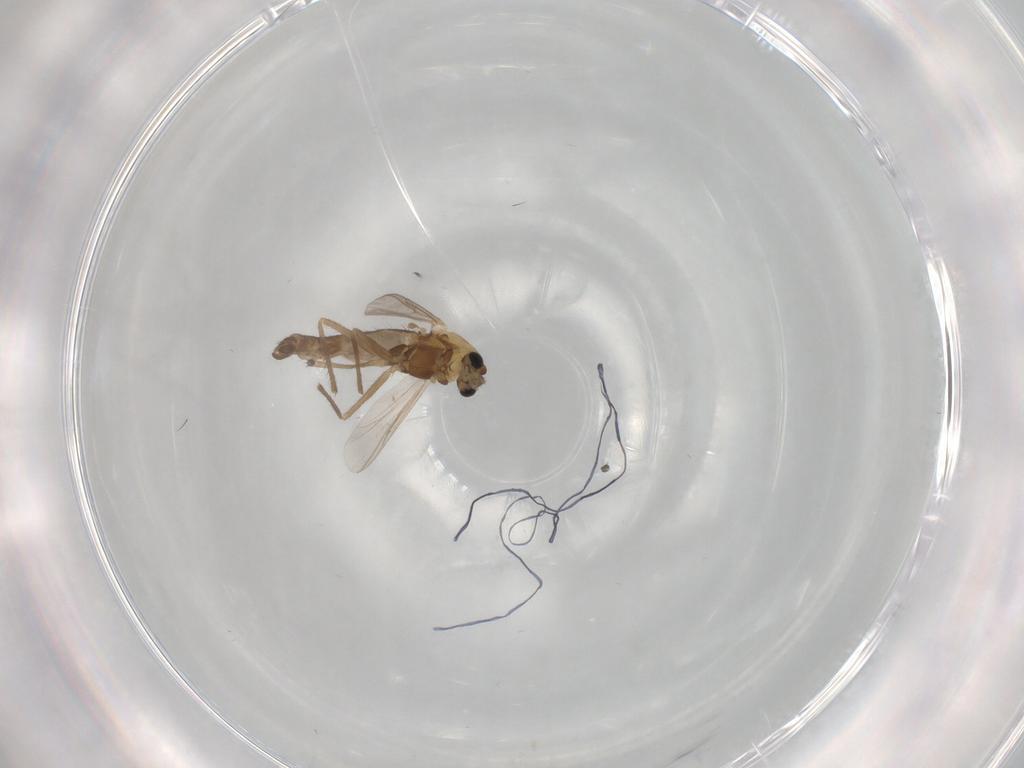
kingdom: Animalia
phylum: Arthropoda
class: Insecta
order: Diptera
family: Chironomidae
